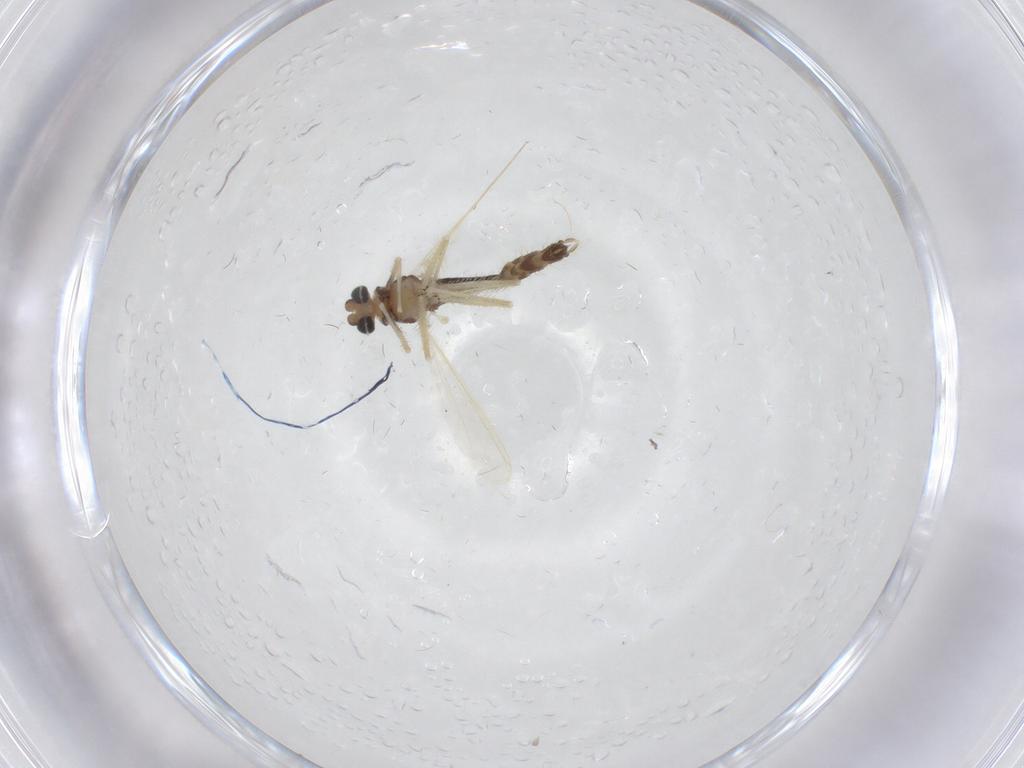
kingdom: Animalia
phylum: Arthropoda
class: Insecta
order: Diptera
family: Chironomidae
